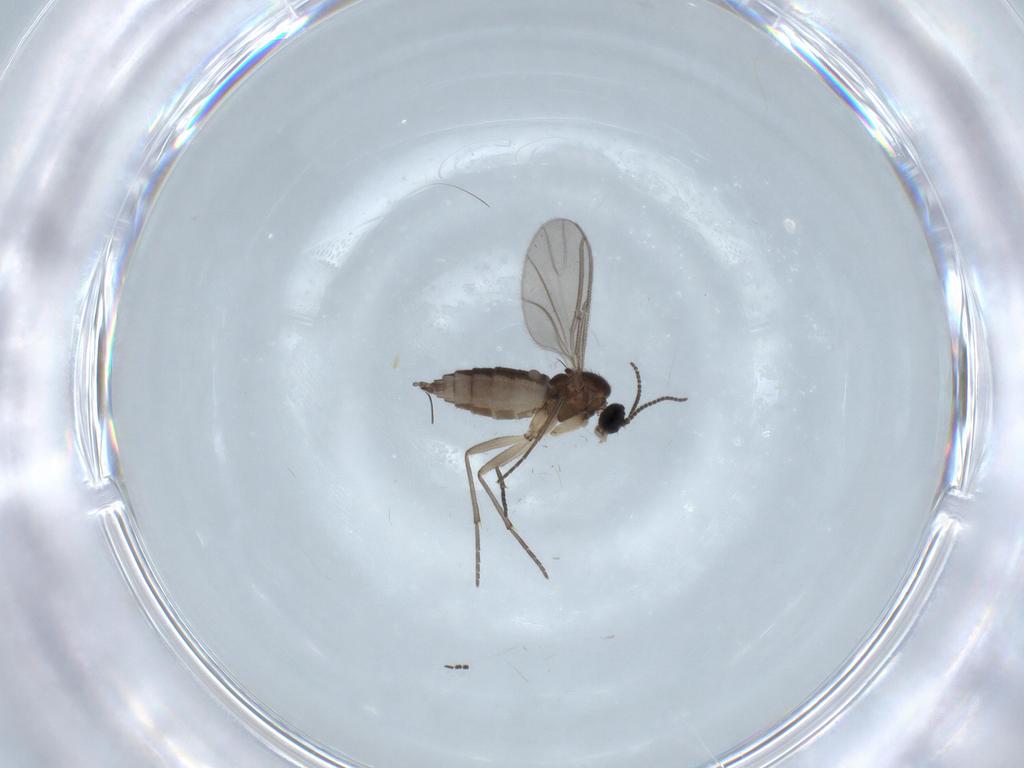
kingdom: Animalia
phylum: Arthropoda
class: Insecta
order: Diptera
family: Sciaridae
